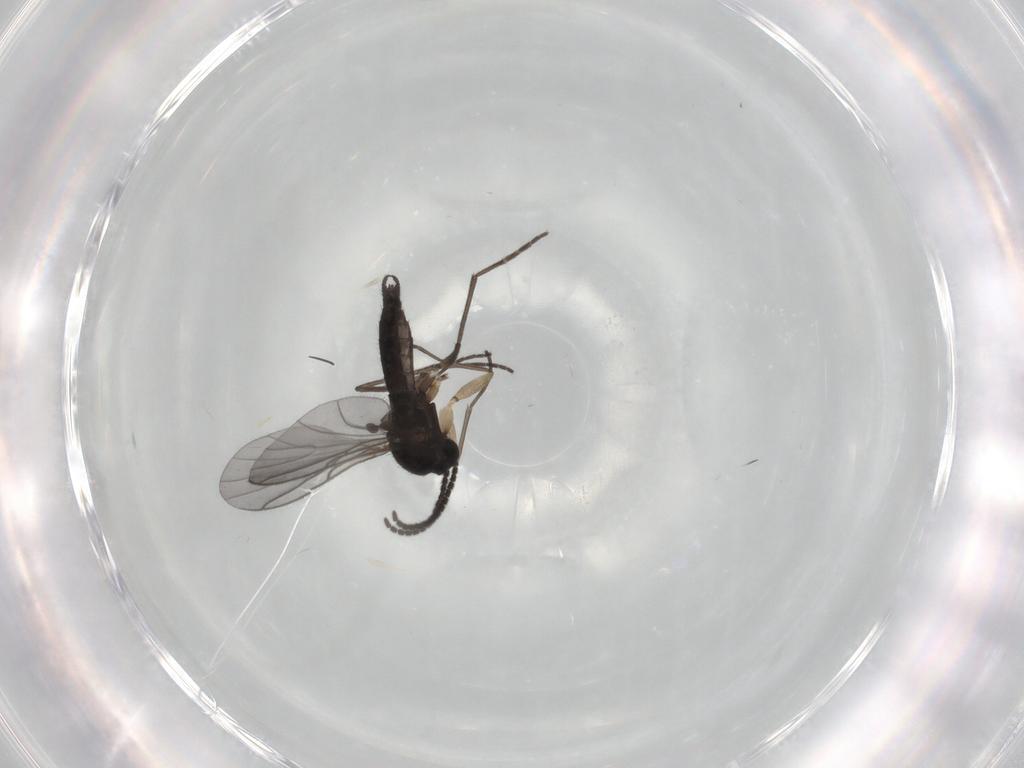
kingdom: Animalia
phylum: Arthropoda
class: Insecta
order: Diptera
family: Sciaridae
